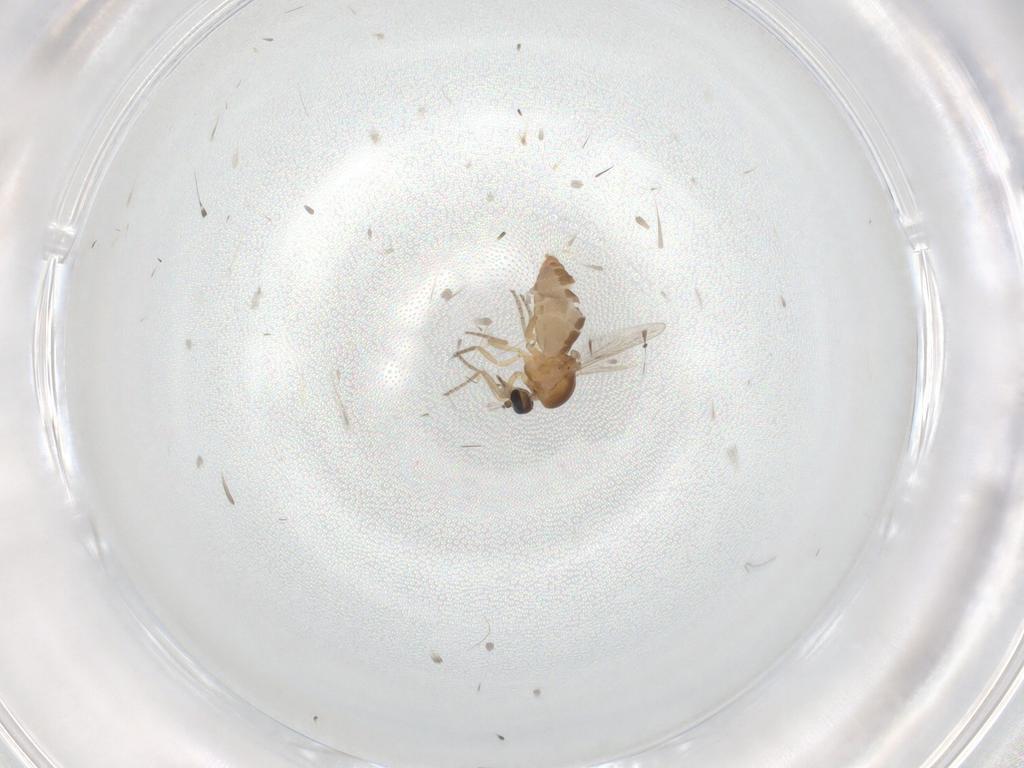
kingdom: Animalia
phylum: Arthropoda
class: Insecta
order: Diptera
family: Ceratopogonidae
